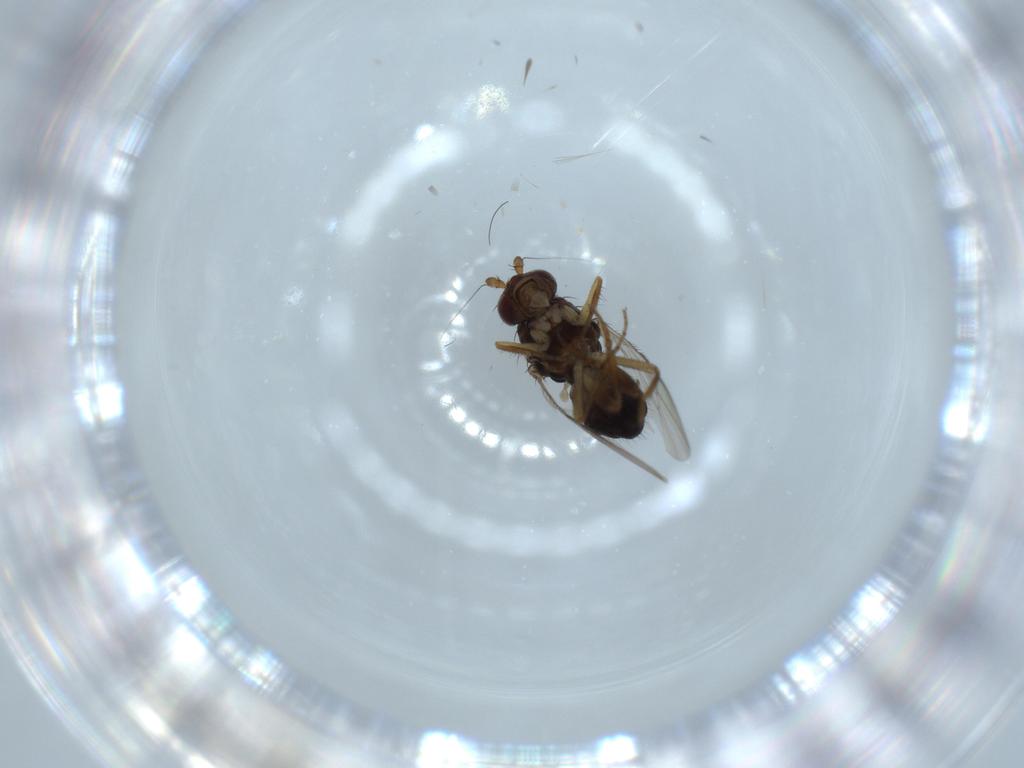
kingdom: Animalia
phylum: Arthropoda
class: Insecta
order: Diptera
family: Sphaeroceridae
